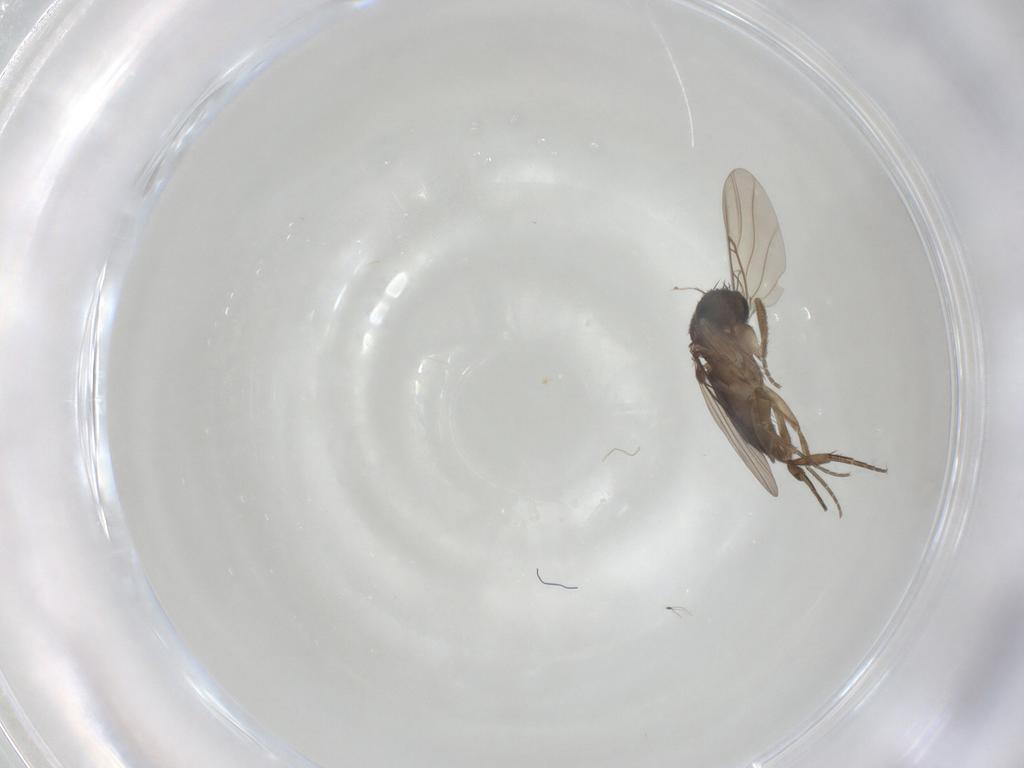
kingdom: Animalia
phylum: Arthropoda
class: Insecta
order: Diptera
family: Phoridae
